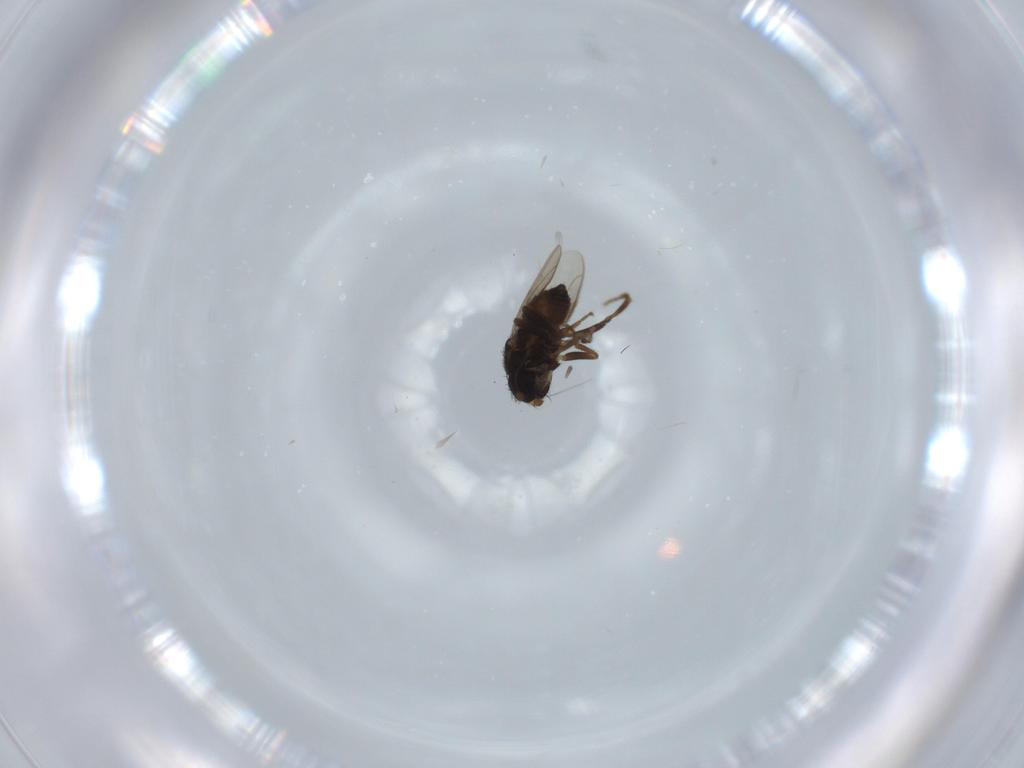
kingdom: Animalia
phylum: Arthropoda
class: Insecta
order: Diptera
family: Sphaeroceridae
